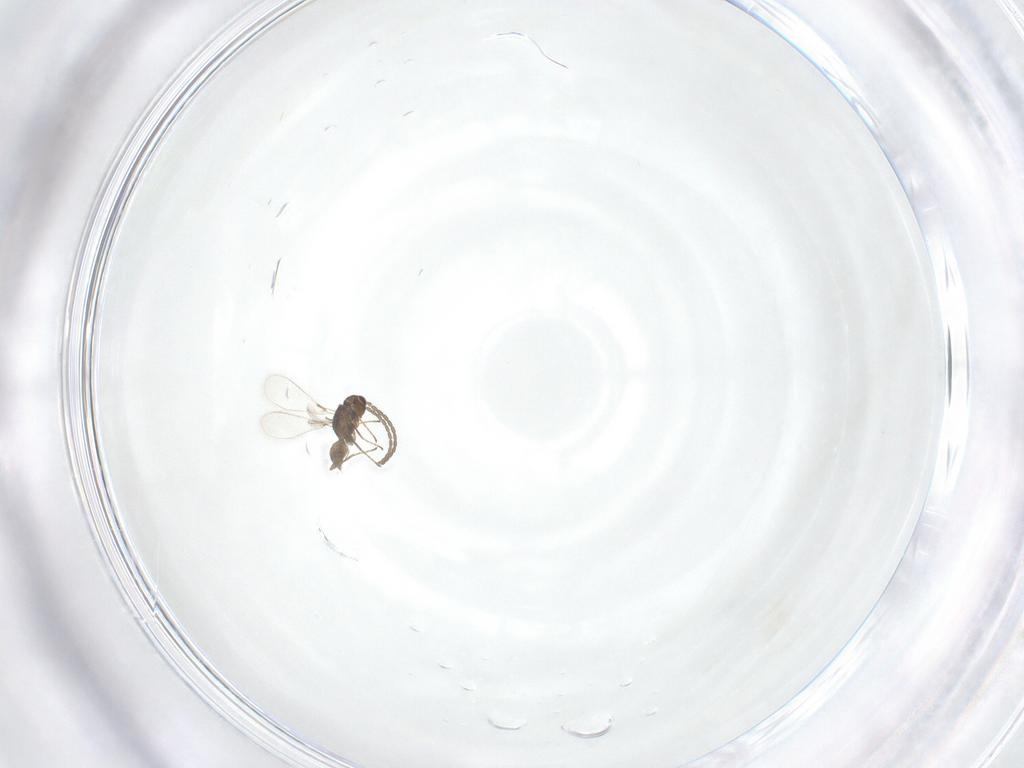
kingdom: Animalia
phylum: Arthropoda
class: Insecta
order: Hymenoptera
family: Mymaridae
